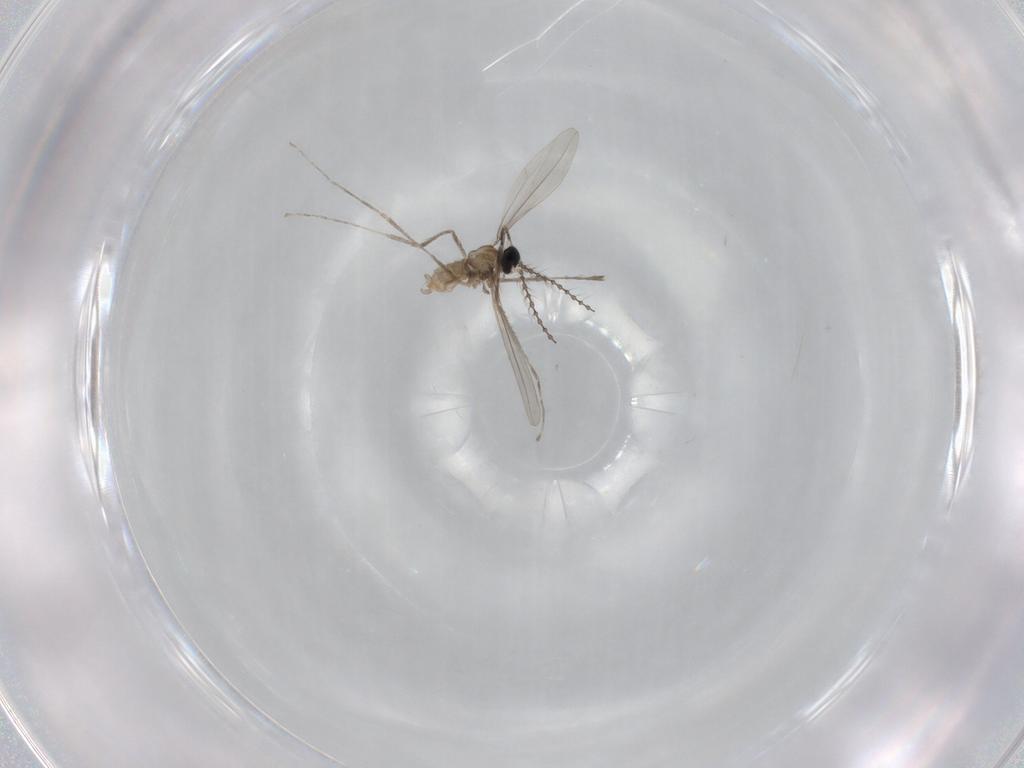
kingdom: Animalia
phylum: Arthropoda
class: Insecta
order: Diptera
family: Cecidomyiidae
